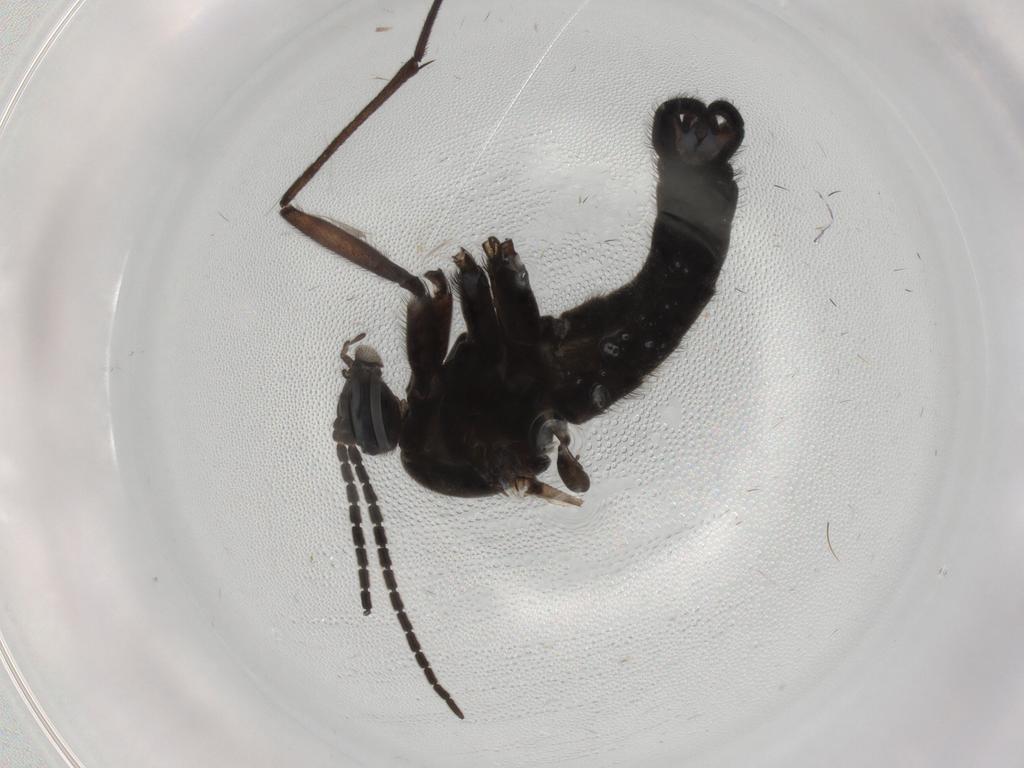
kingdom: Animalia
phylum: Arthropoda
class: Insecta
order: Diptera
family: Sciaridae
